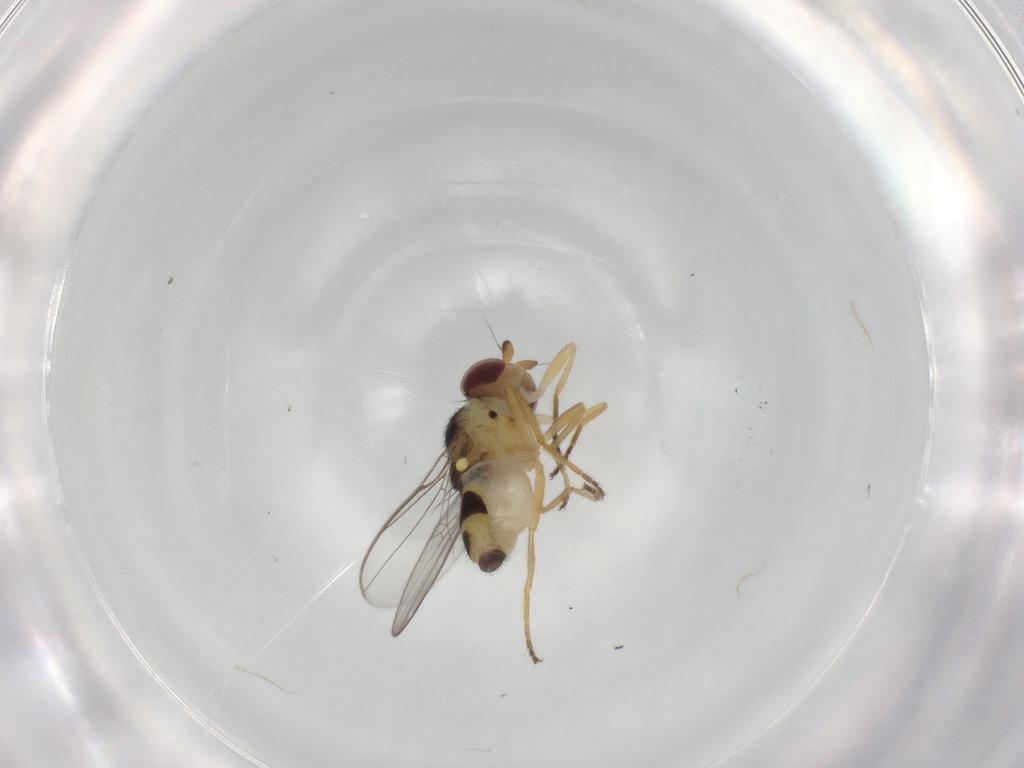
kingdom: Animalia
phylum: Arthropoda
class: Insecta
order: Diptera
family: Chloropidae
